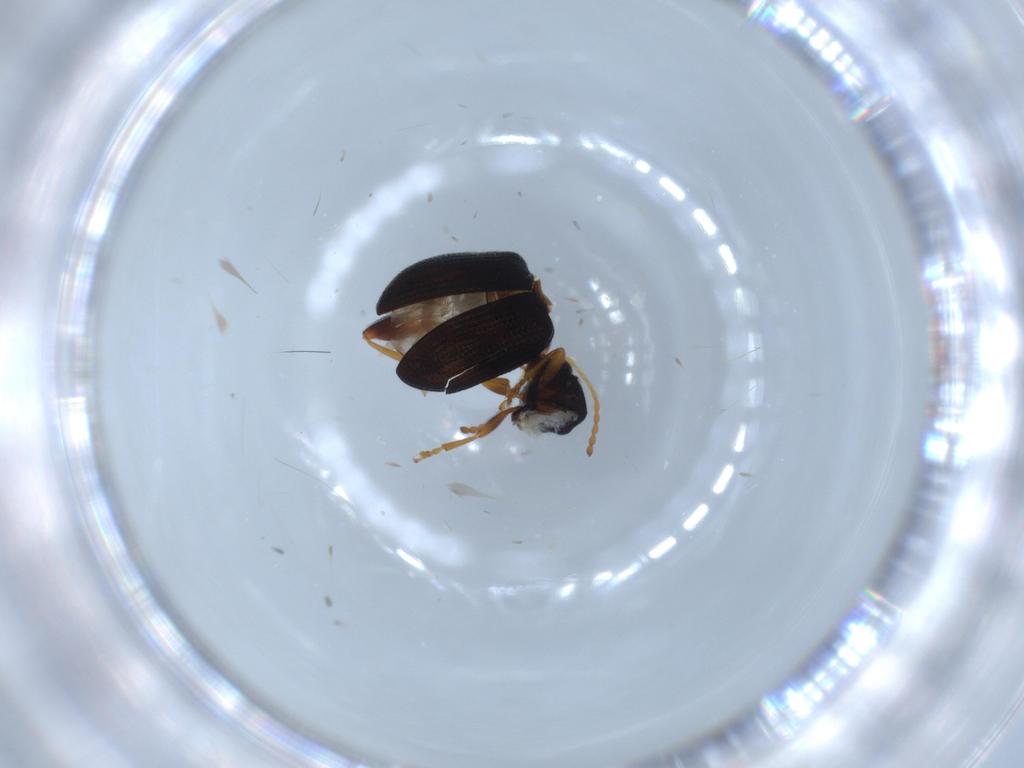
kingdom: Animalia
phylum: Arthropoda
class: Insecta
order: Coleoptera
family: Chrysomelidae
